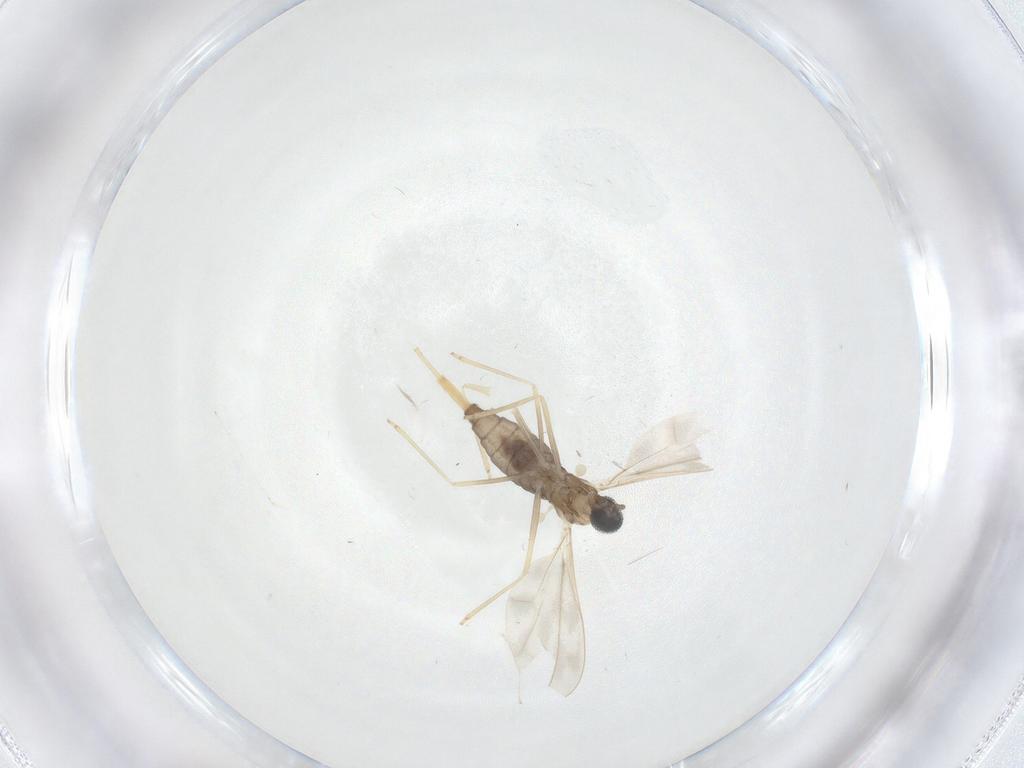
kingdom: Animalia
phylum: Arthropoda
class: Insecta
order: Diptera
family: Cecidomyiidae
